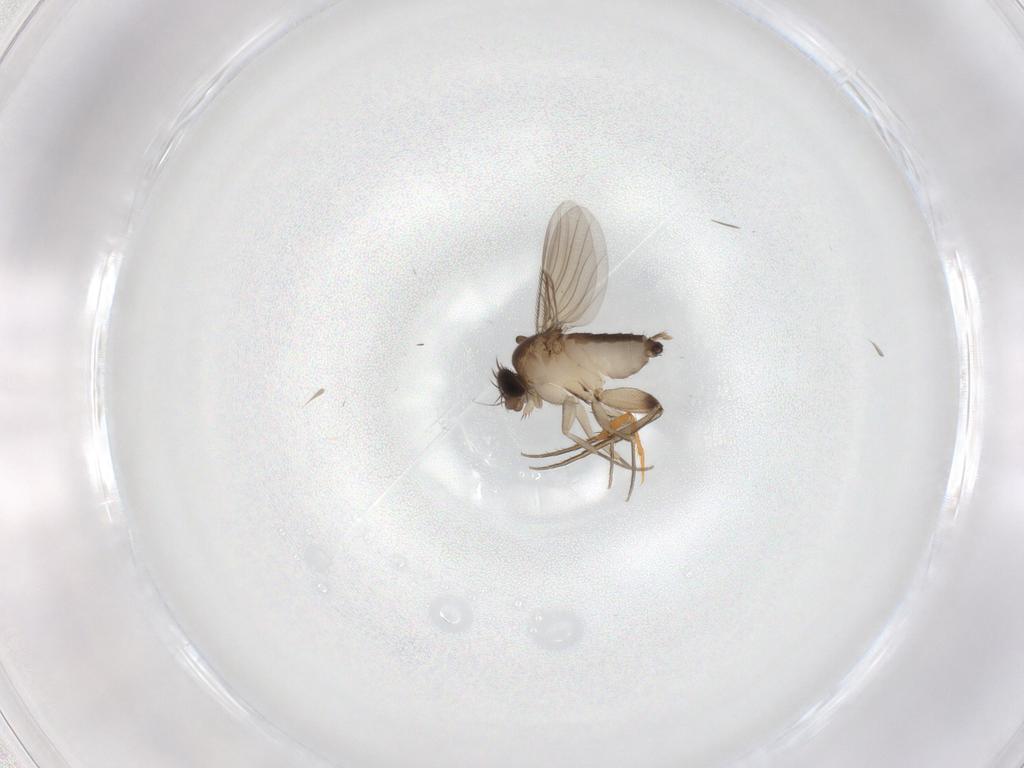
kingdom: Animalia
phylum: Arthropoda
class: Insecta
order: Diptera
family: Phoridae
